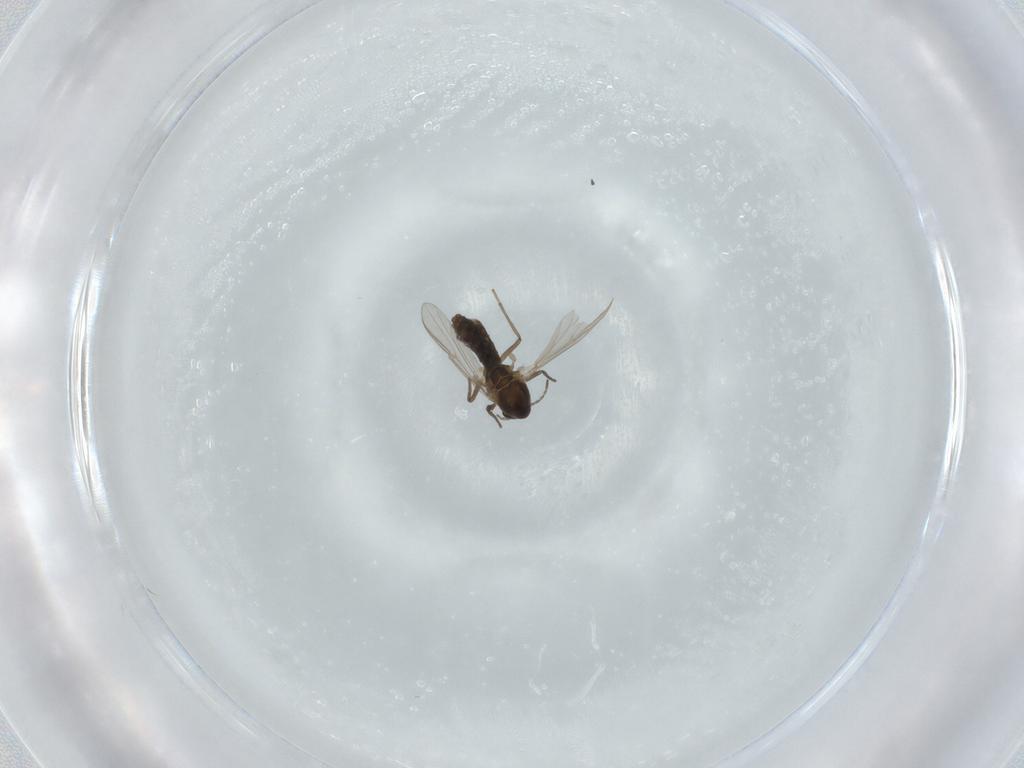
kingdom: Animalia
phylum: Arthropoda
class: Insecta
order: Diptera
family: Chironomidae
